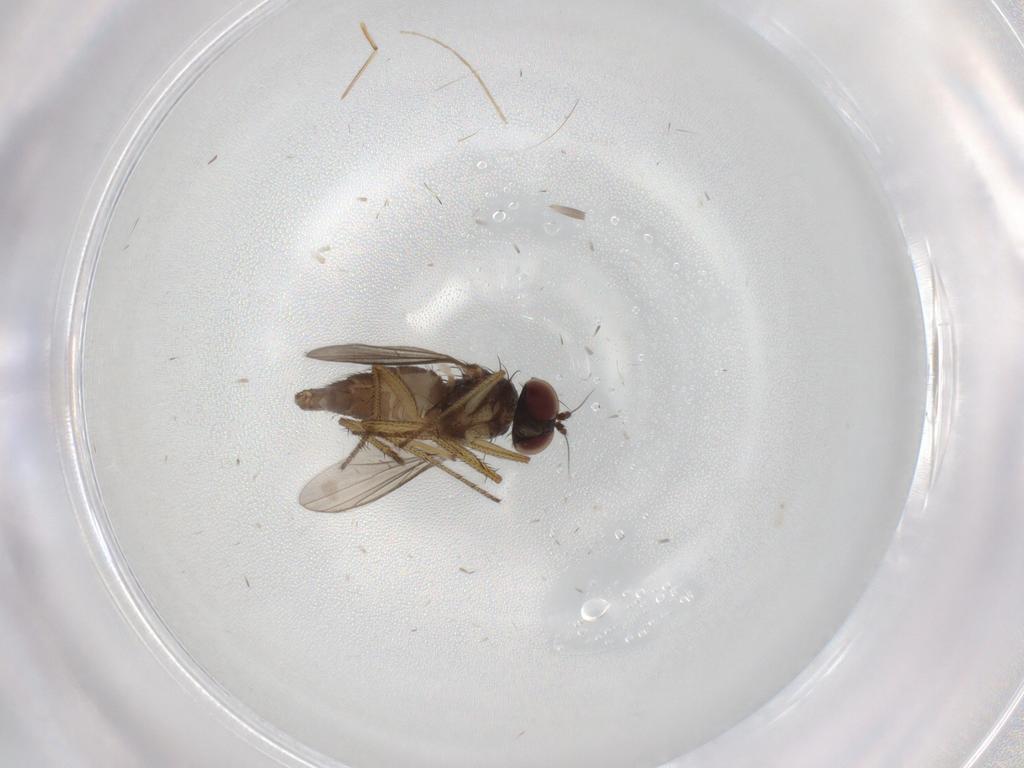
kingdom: Animalia
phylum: Arthropoda
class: Insecta
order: Diptera
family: Dolichopodidae
